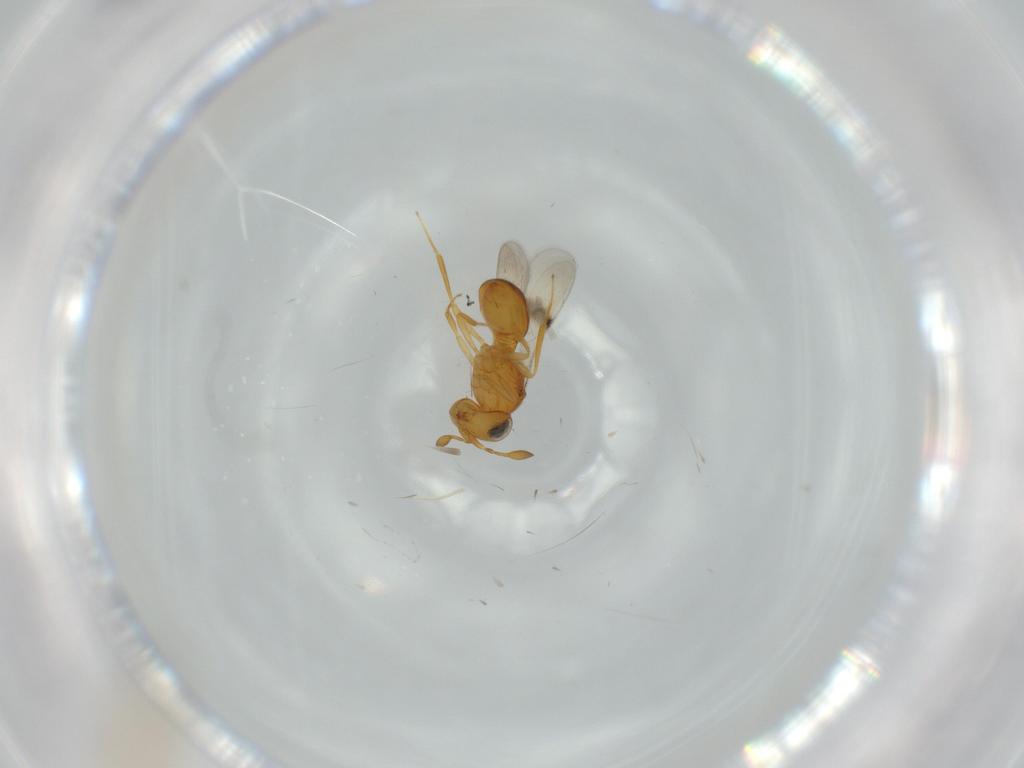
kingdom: Animalia
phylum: Arthropoda
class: Insecta
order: Hymenoptera
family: Scelionidae
